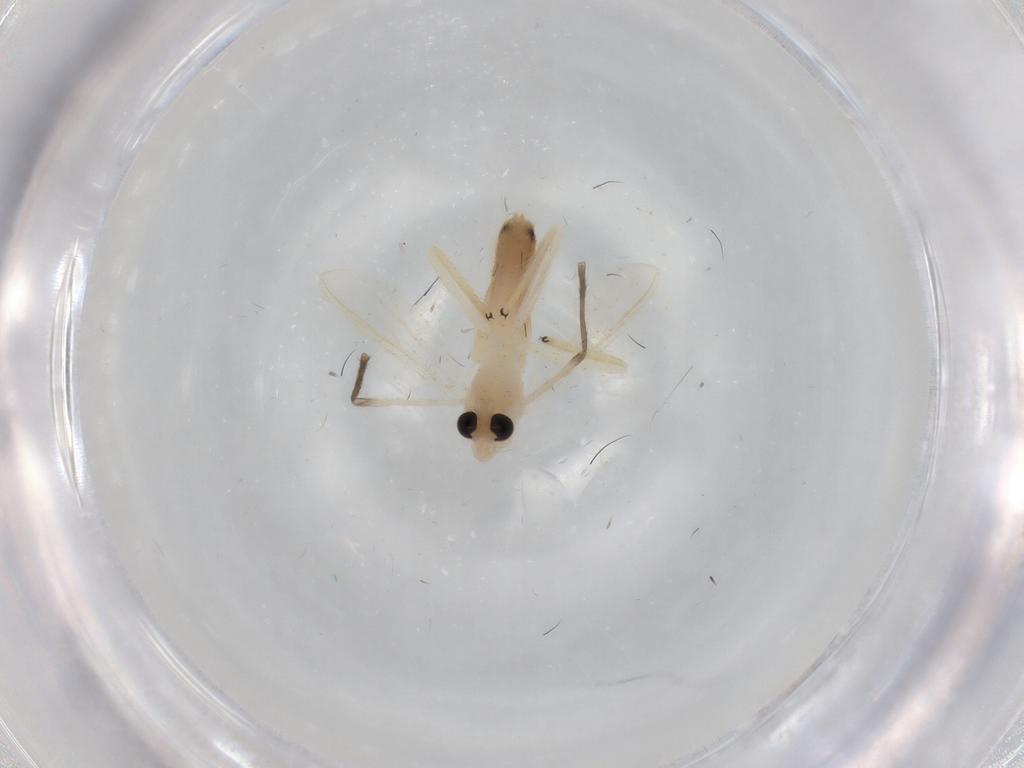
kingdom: Animalia
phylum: Arthropoda
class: Insecta
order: Diptera
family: Chironomidae
